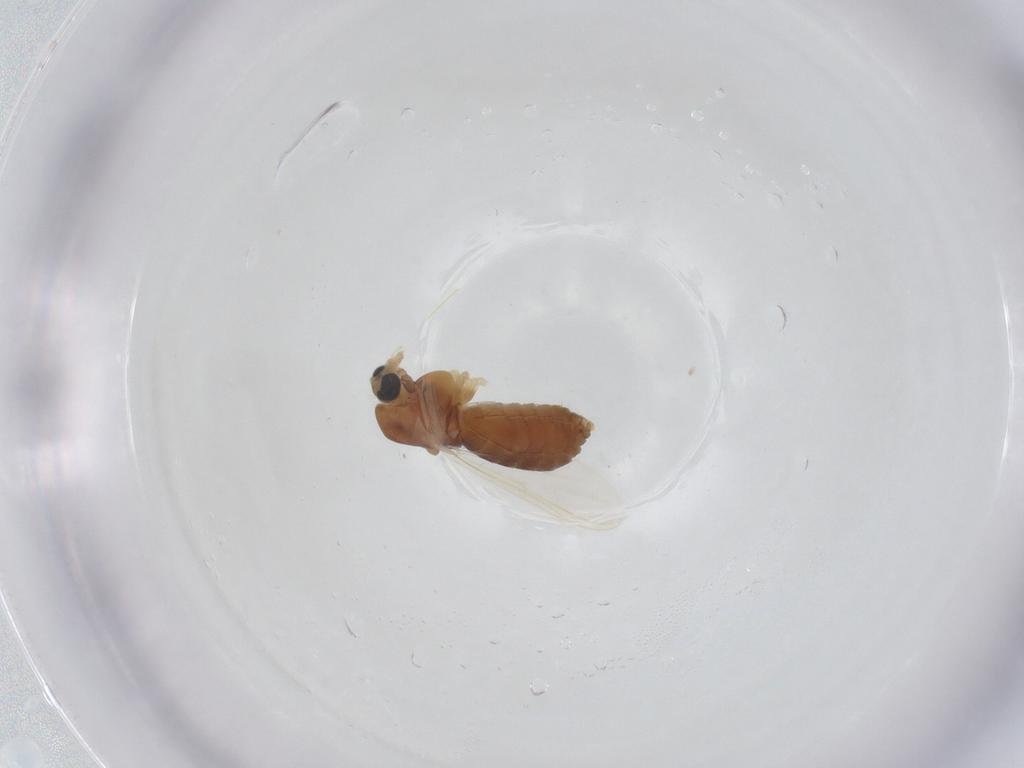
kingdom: Animalia
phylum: Arthropoda
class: Insecta
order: Diptera
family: Chironomidae
